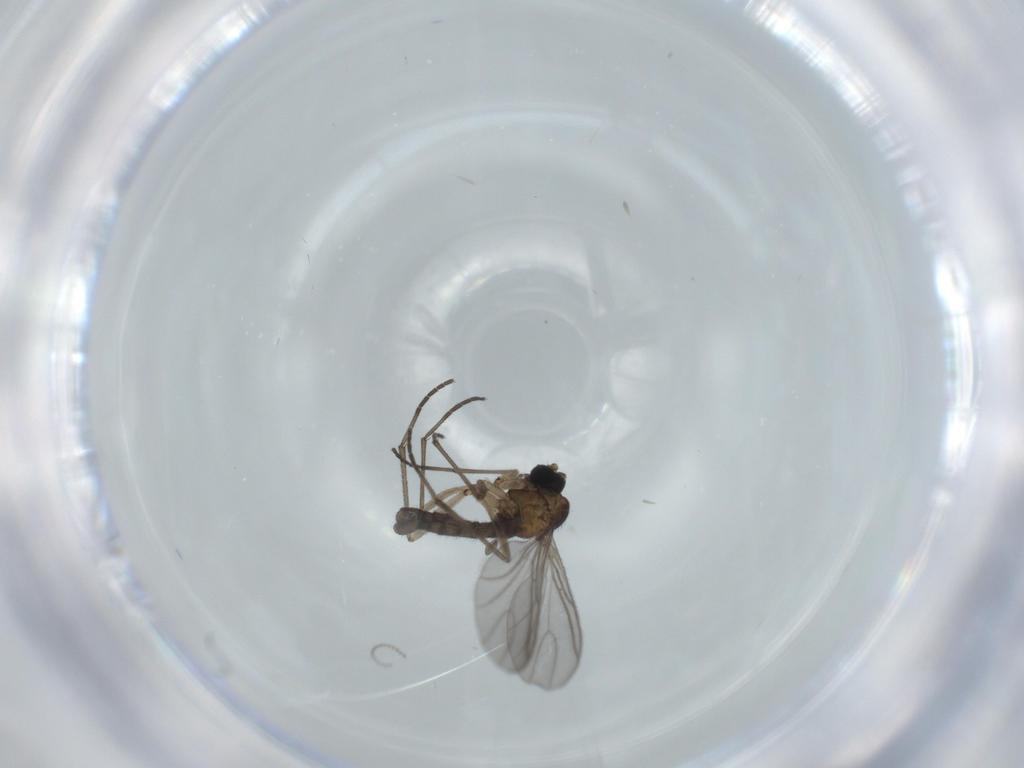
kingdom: Animalia
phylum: Arthropoda
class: Insecta
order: Diptera
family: Sciaridae
